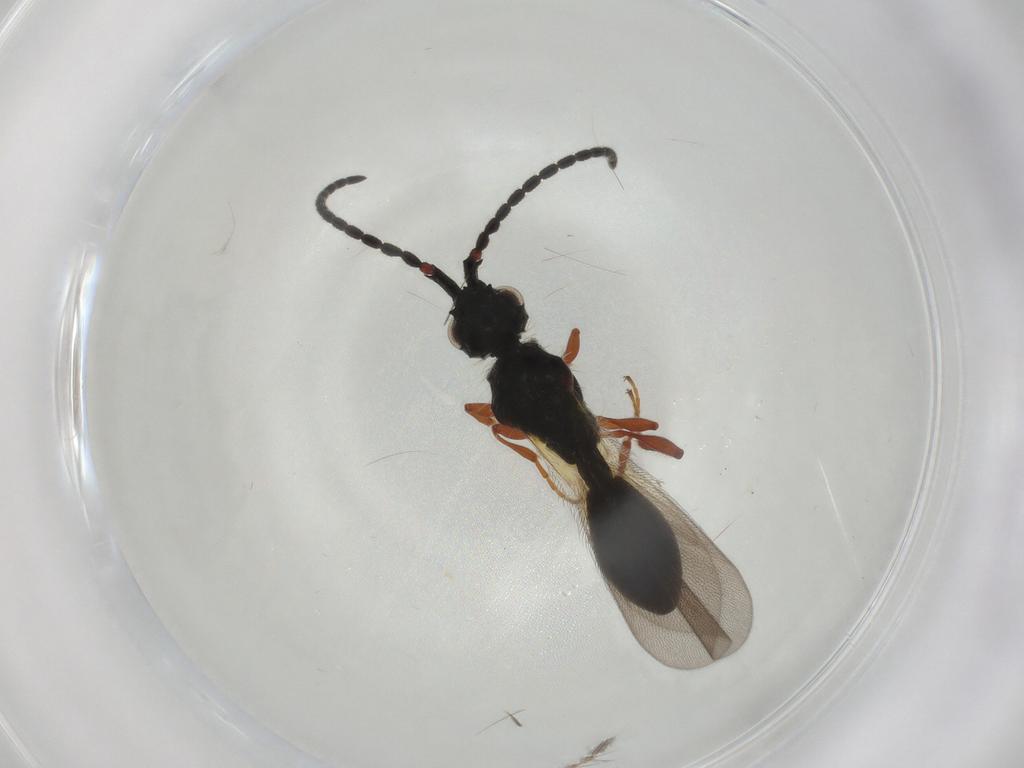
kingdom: Animalia
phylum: Arthropoda
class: Insecta
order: Hymenoptera
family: Diapriidae
